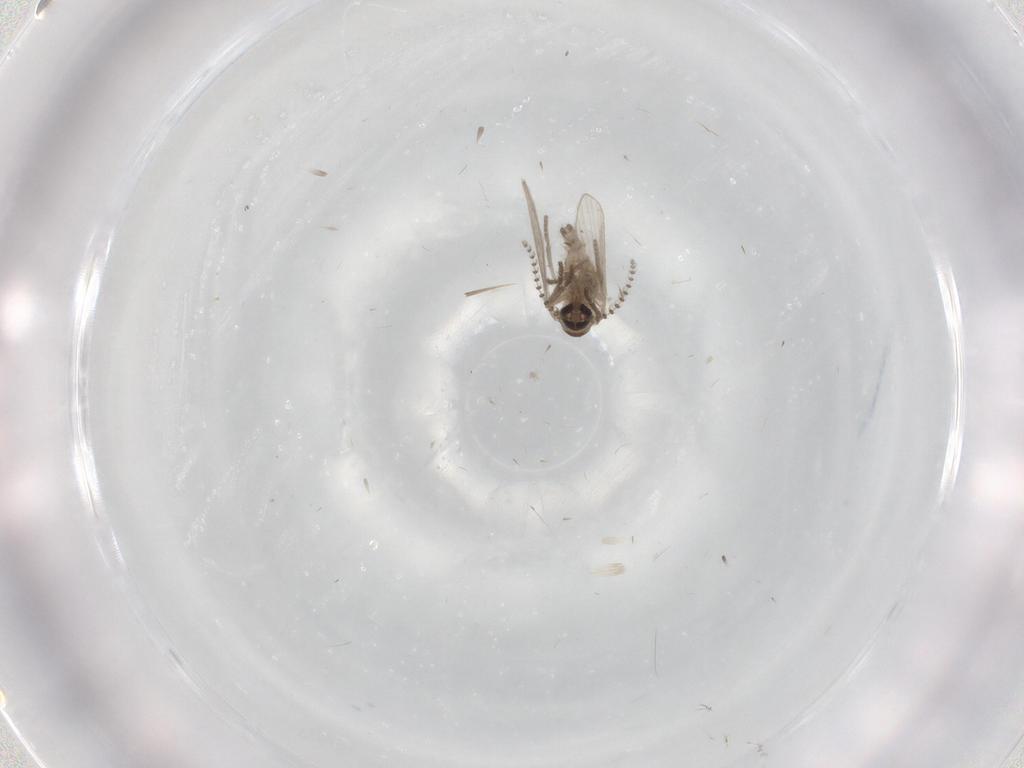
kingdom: Animalia
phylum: Arthropoda
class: Insecta
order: Diptera
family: Psychodidae
